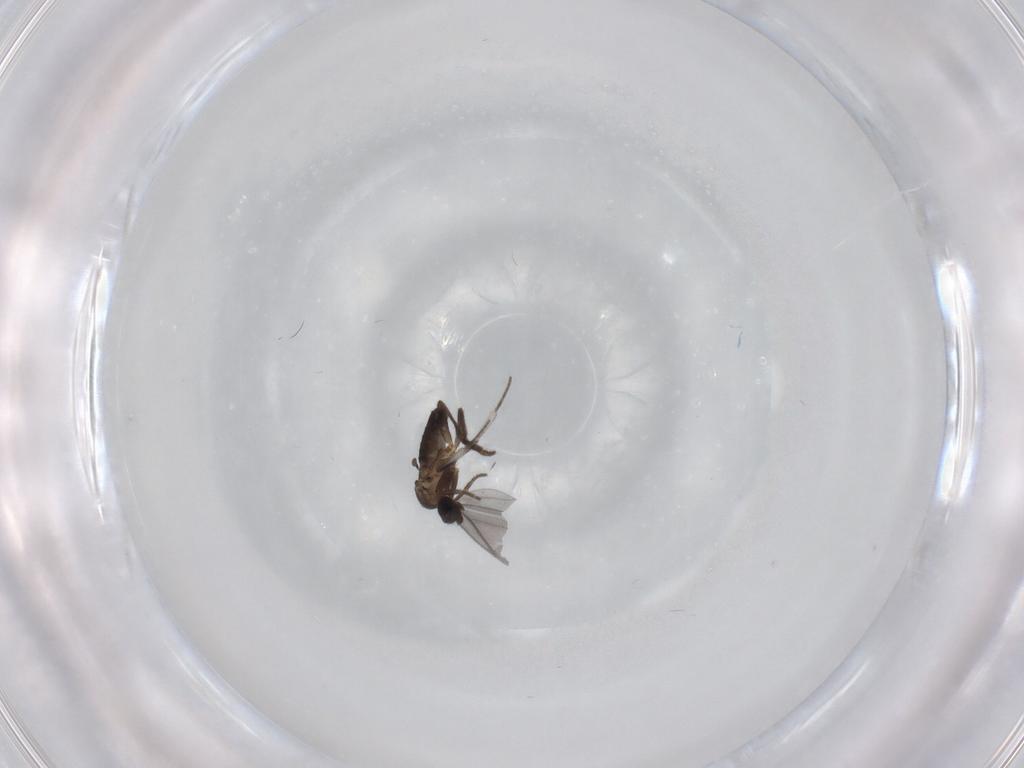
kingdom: Animalia
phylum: Arthropoda
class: Insecta
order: Diptera
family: Phoridae
